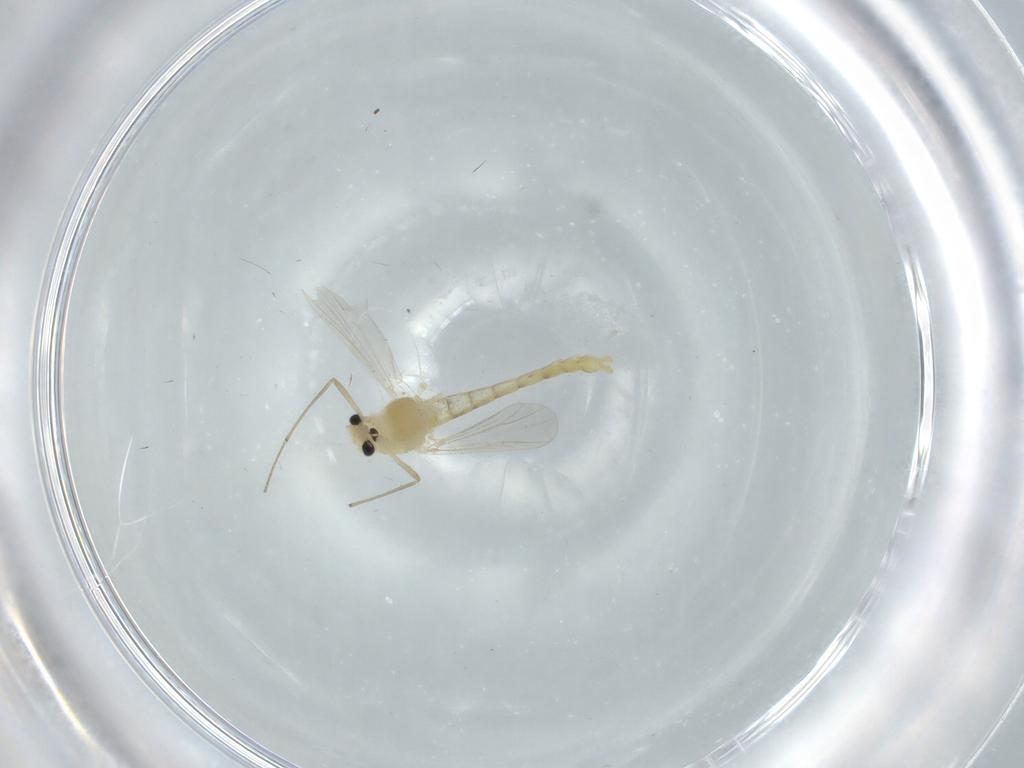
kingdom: Animalia
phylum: Arthropoda
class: Insecta
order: Diptera
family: Chironomidae
